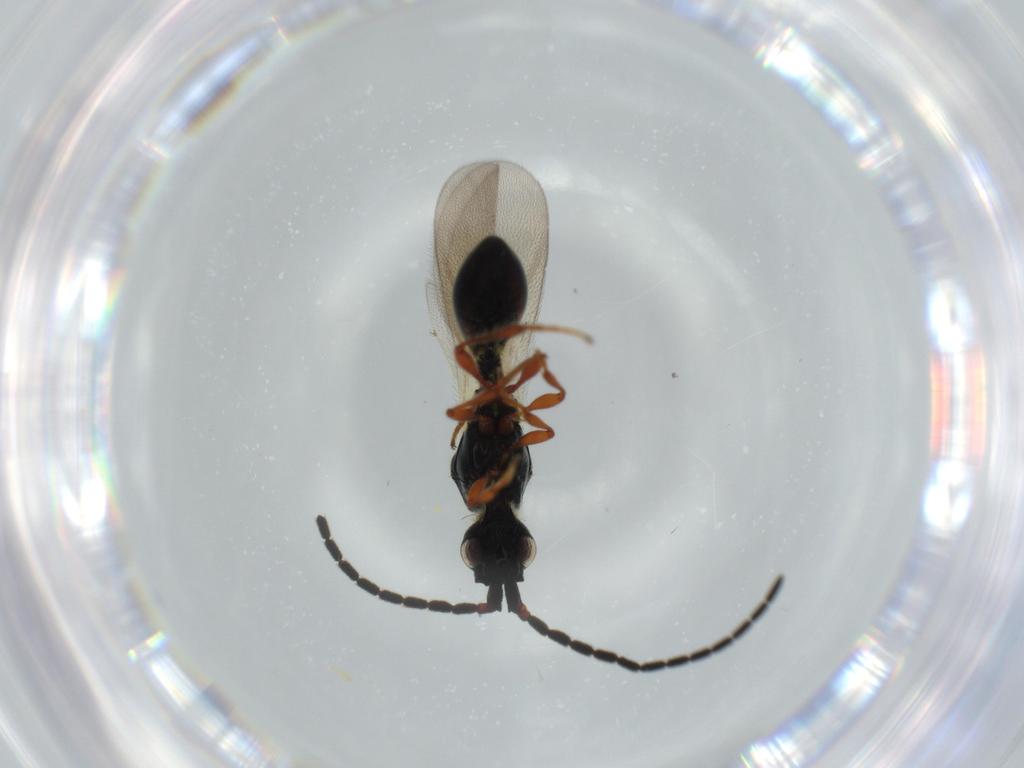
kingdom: Animalia
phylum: Arthropoda
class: Insecta
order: Hymenoptera
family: Diapriidae
